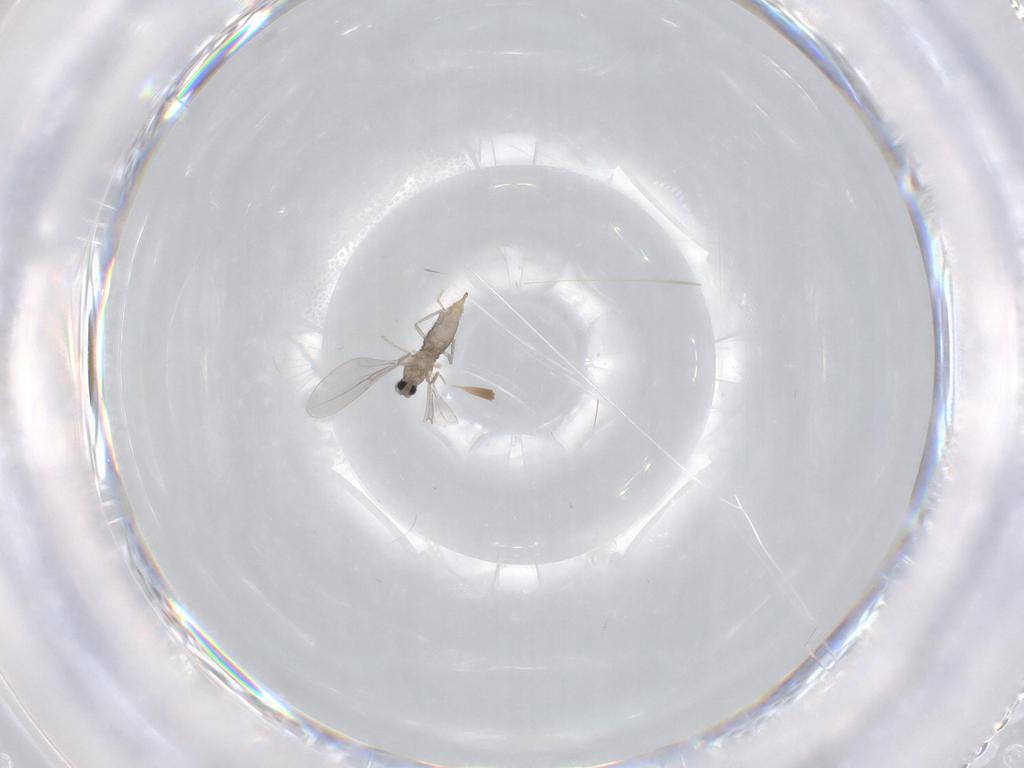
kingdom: Animalia
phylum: Arthropoda
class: Insecta
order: Diptera
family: Cecidomyiidae
